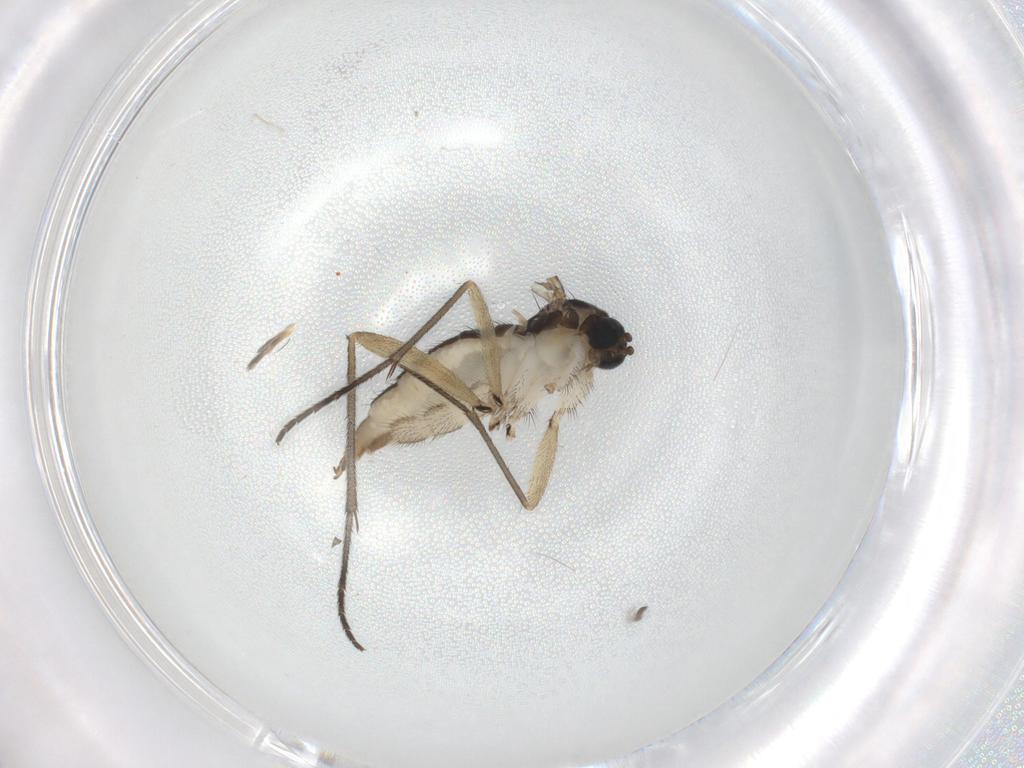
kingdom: Animalia
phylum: Arthropoda
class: Insecta
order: Diptera
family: Sciaridae
